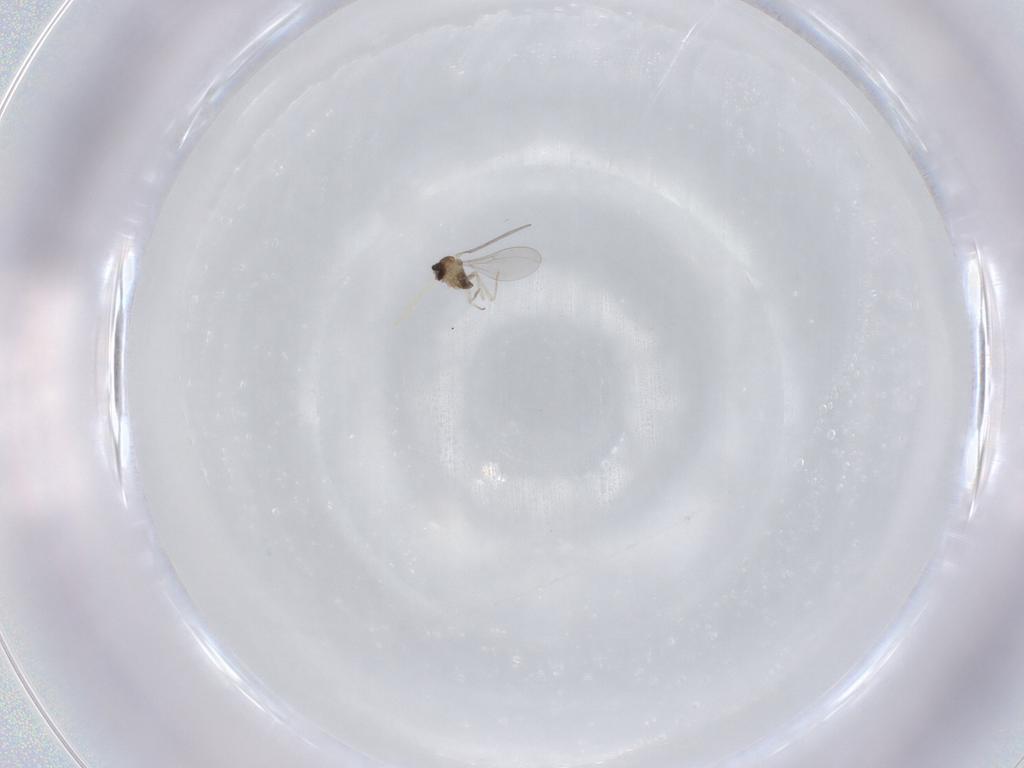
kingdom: Animalia
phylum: Arthropoda
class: Insecta
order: Diptera
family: Cecidomyiidae
